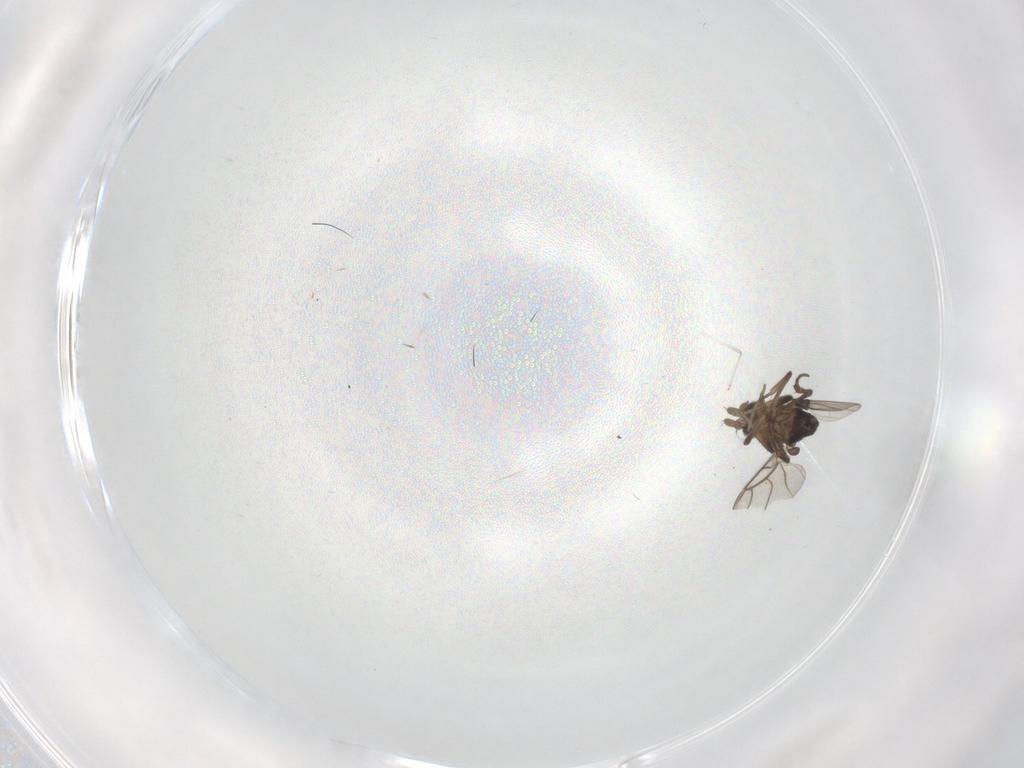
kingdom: Animalia
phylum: Arthropoda
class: Insecta
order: Diptera
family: Cecidomyiidae
